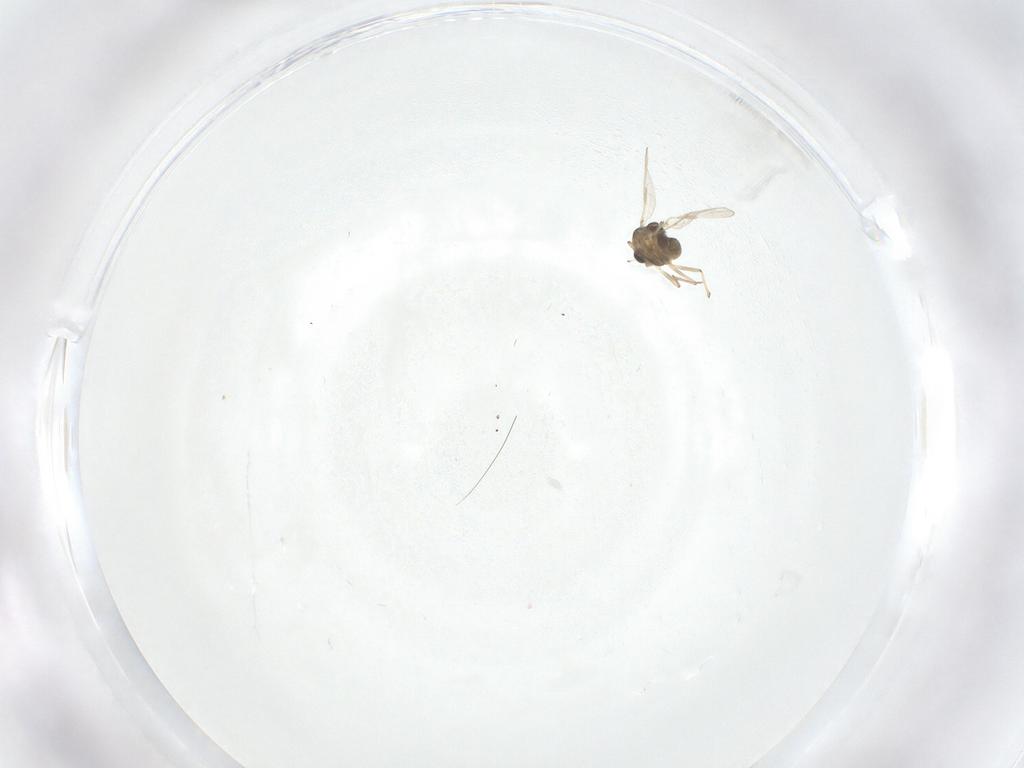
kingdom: Animalia
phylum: Arthropoda
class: Insecta
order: Diptera
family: Chironomidae
